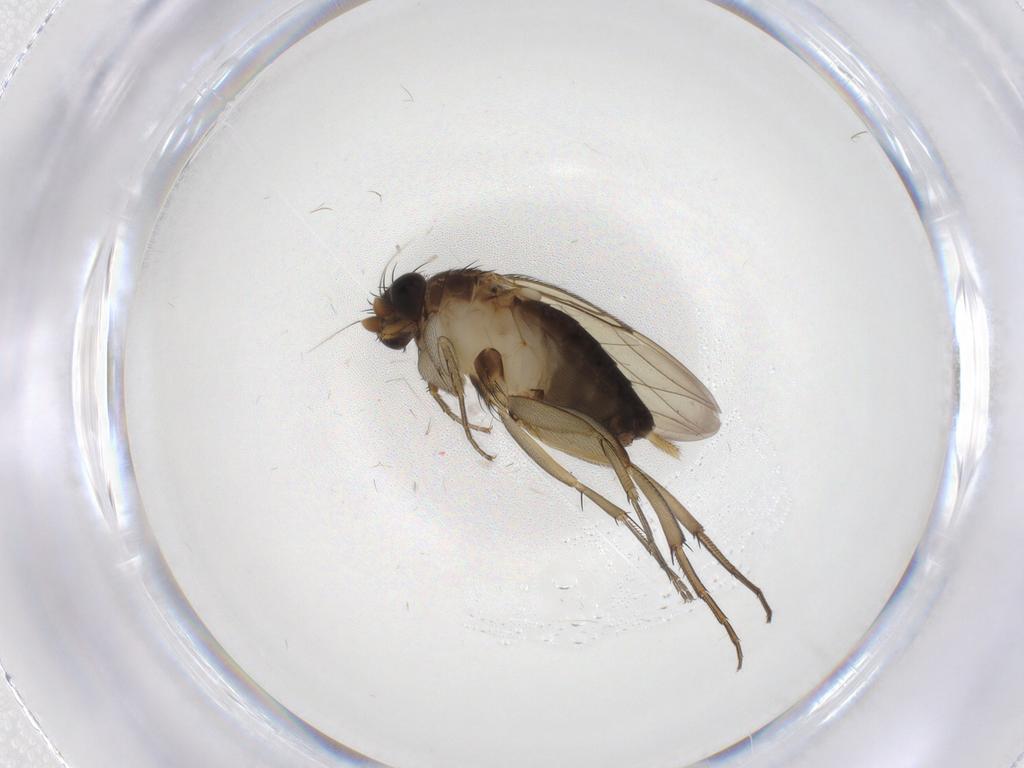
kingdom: Animalia
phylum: Arthropoda
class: Insecta
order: Diptera
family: Phoridae
